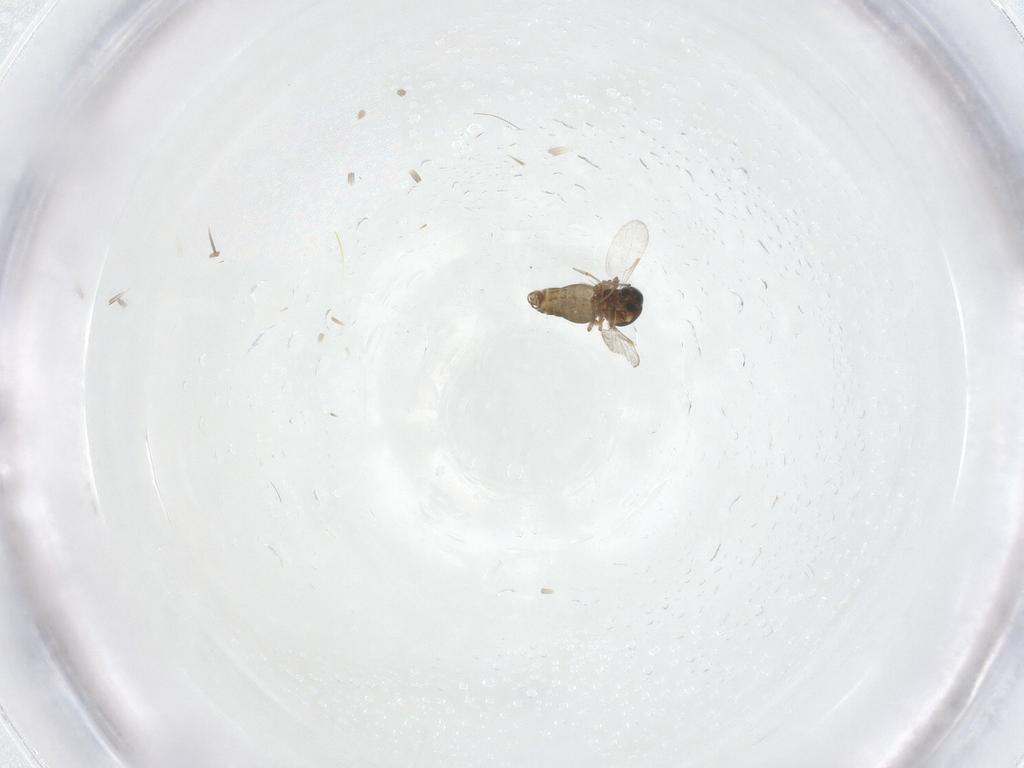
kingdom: Animalia
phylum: Arthropoda
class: Insecta
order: Diptera
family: Ceratopogonidae
